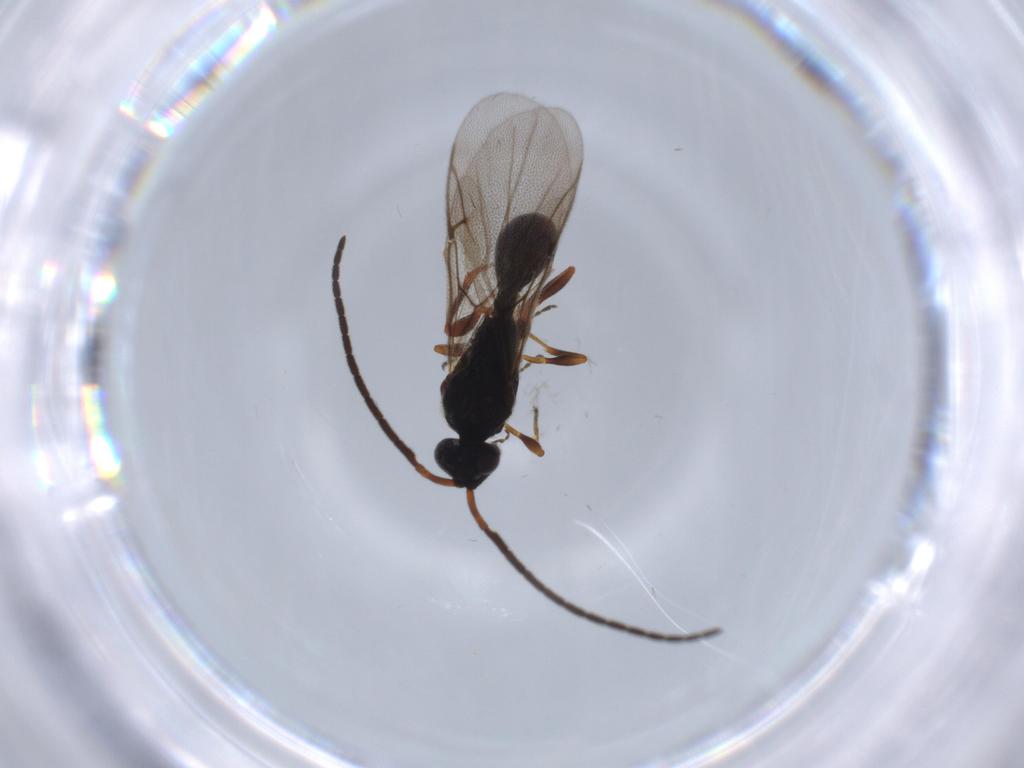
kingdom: Animalia
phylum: Arthropoda
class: Insecta
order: Hymenoptera
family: Diapriidae
